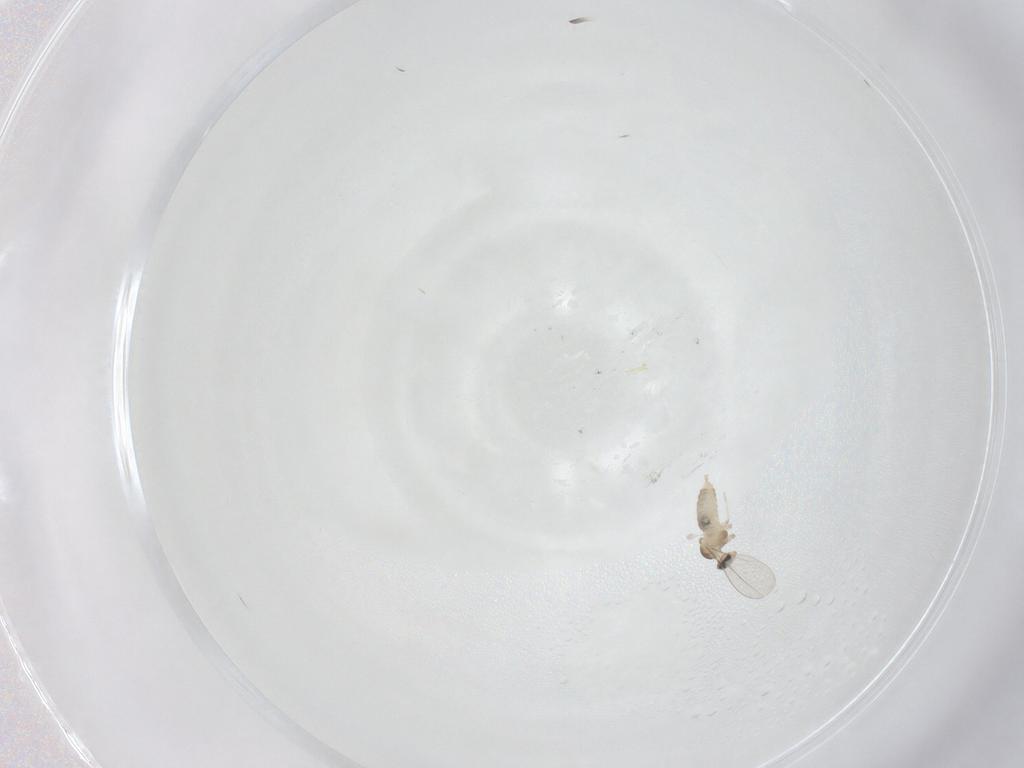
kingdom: Animalia
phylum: Arthropoda
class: Insecta
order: Diptera
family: Cecidomyiidae
